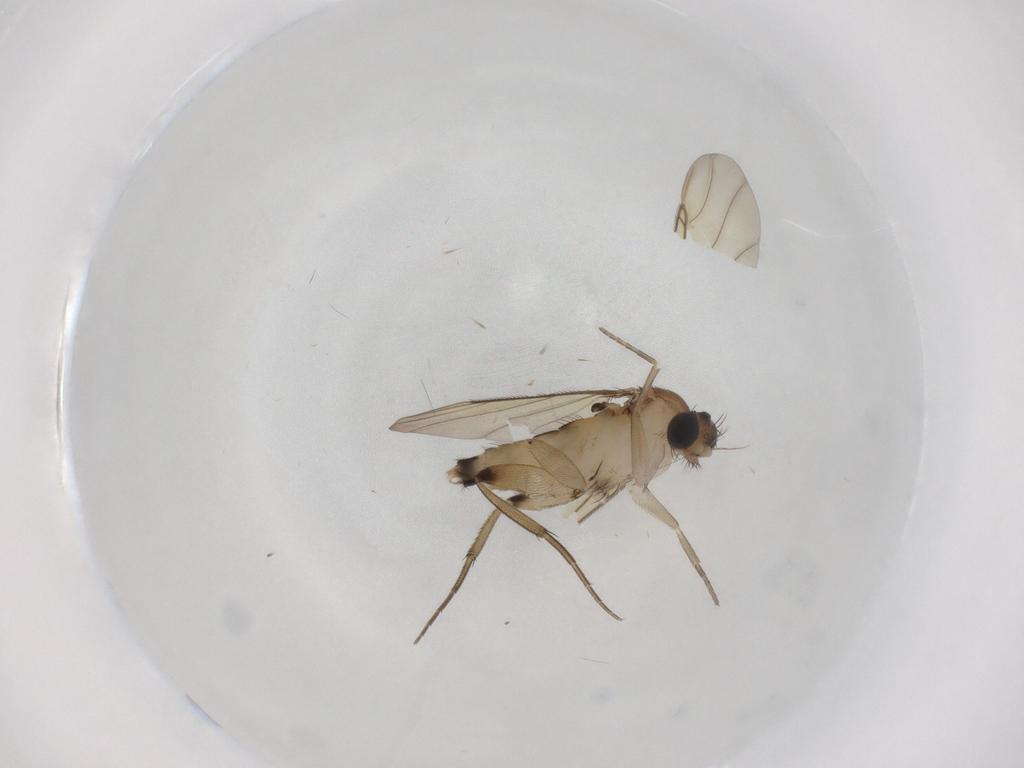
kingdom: Animalia
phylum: Arthropoda
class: Insecta
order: Diptera
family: Phoridae
